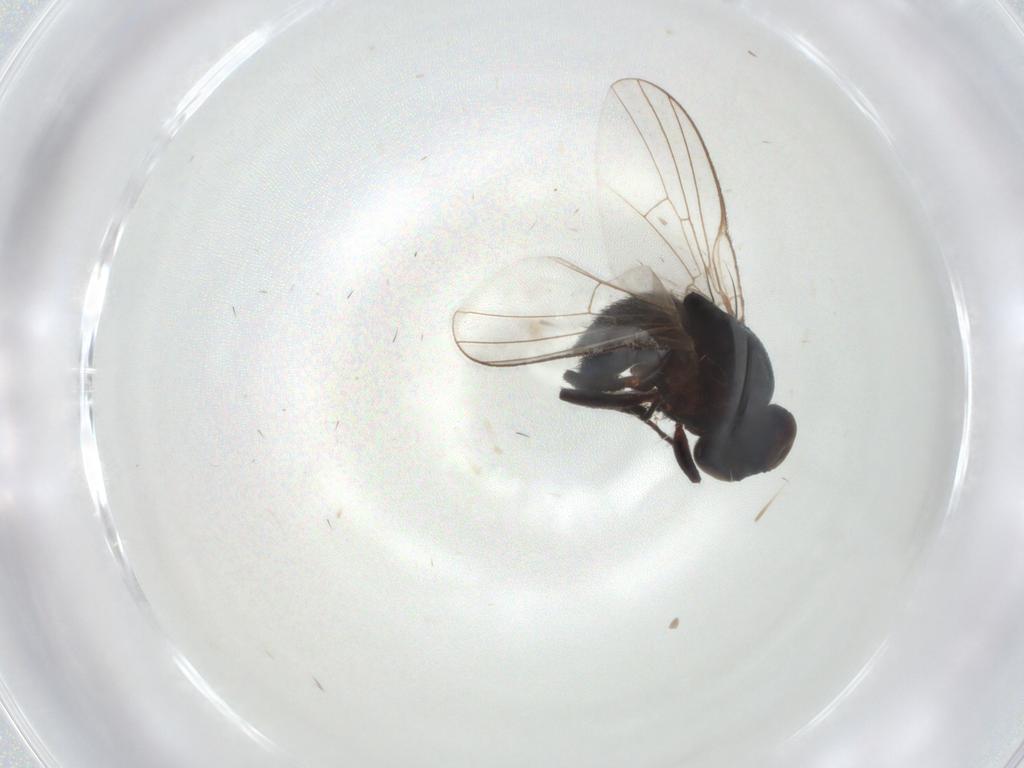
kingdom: Animalia
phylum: Arthropoda
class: Insecta
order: Diptera
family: Agromyzidae
